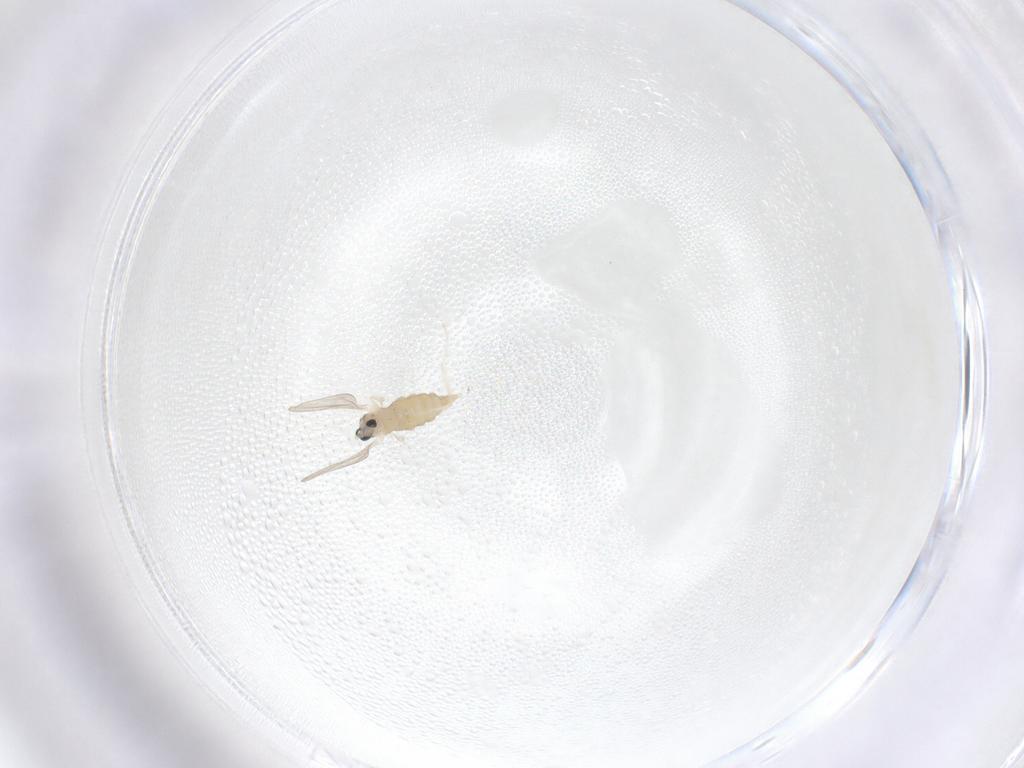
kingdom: Animalia
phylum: Arthropoda
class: Insecta
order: Diptera
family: Cecidomyiidae
